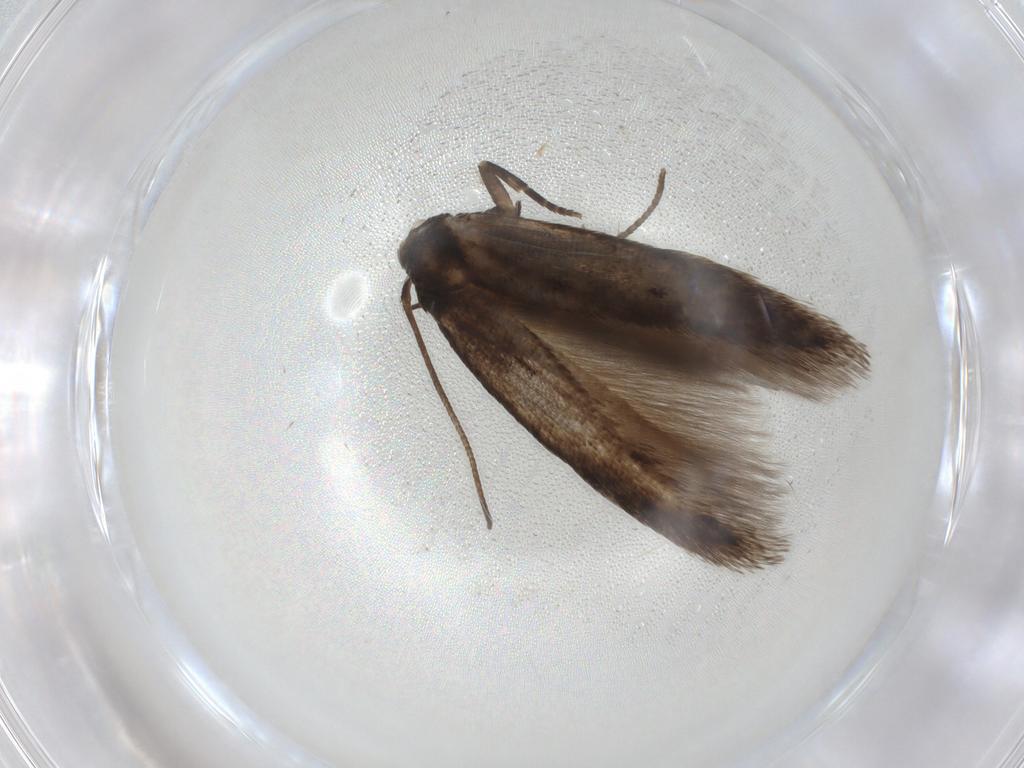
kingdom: Animalia
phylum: Arthropoda
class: Insecta
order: Lepidoptera
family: Cosmopterigidae
